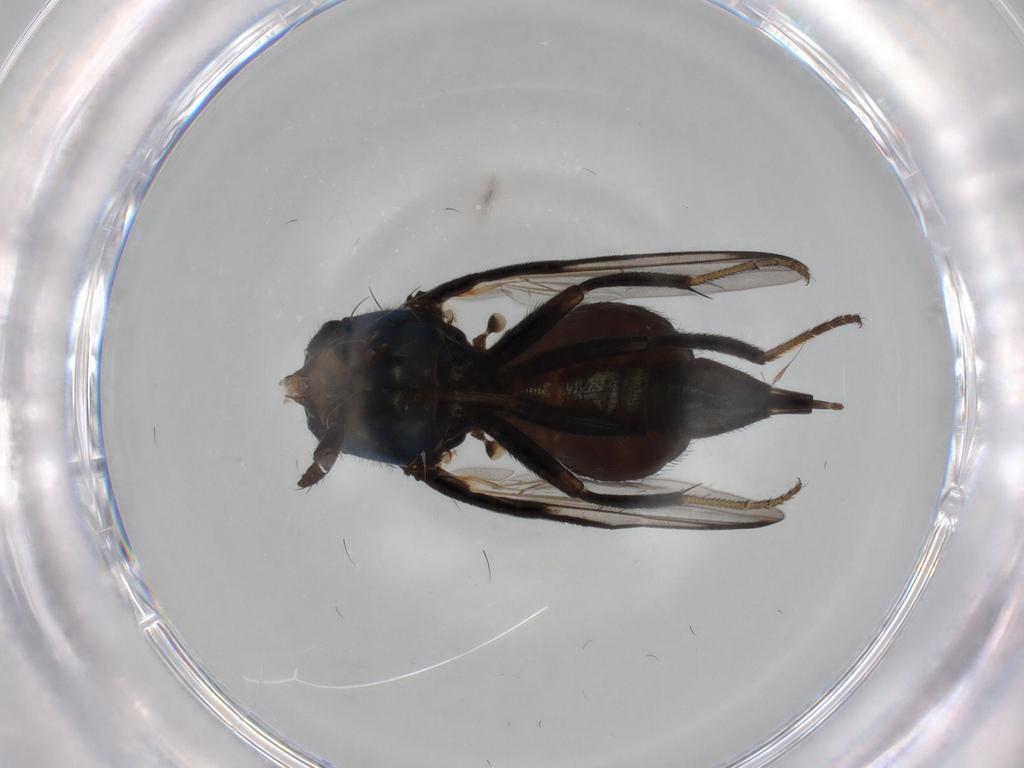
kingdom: Animalia
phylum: Arthropoda
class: Insecta
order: Diptera
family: Ulidiidae
